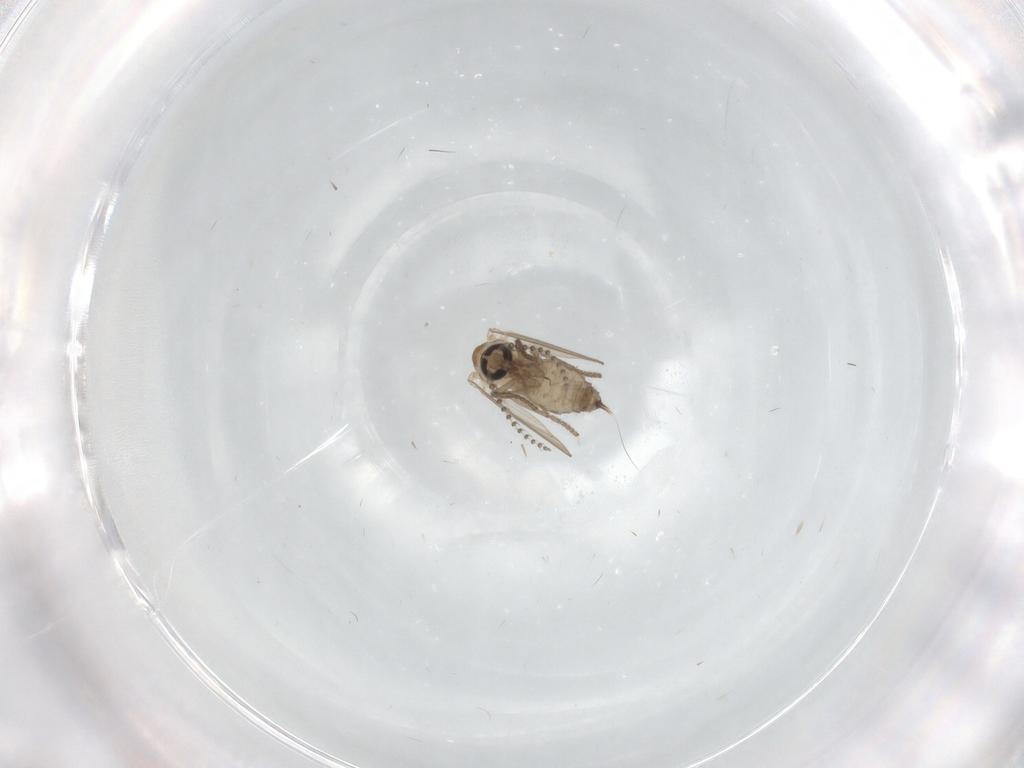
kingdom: Animalia
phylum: Arthropoda
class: Insecta
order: Diptera
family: Psychodidae
